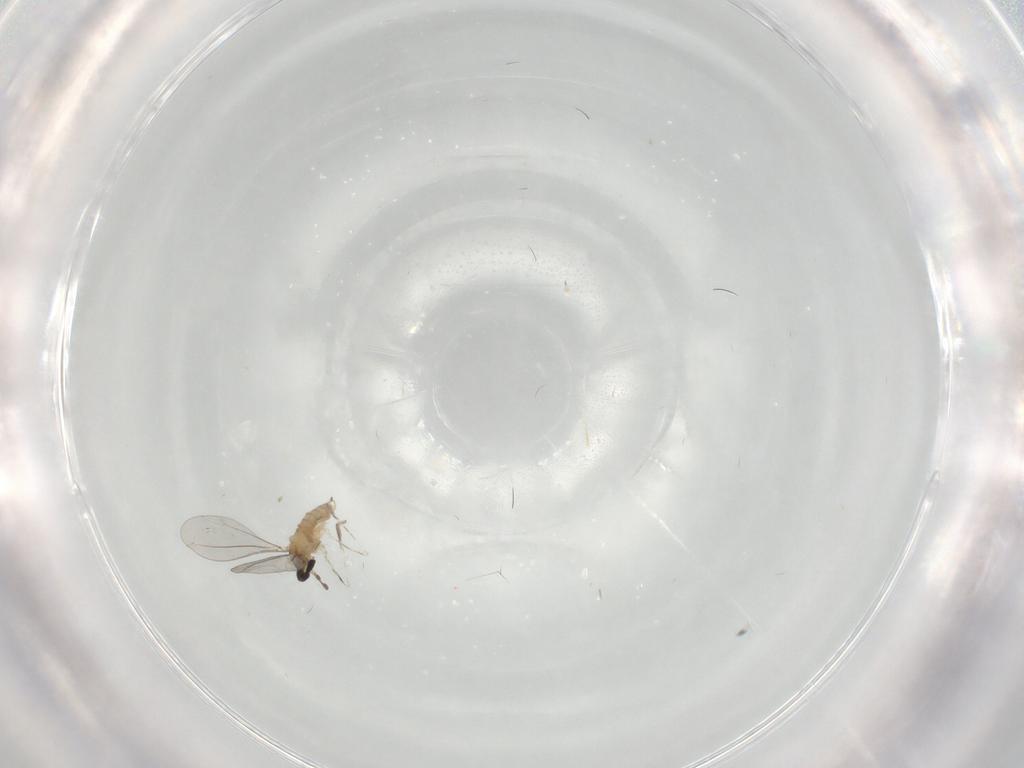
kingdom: Animalia
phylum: Arthropoda
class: Insecta
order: Diptera
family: Cecidomyiidae
